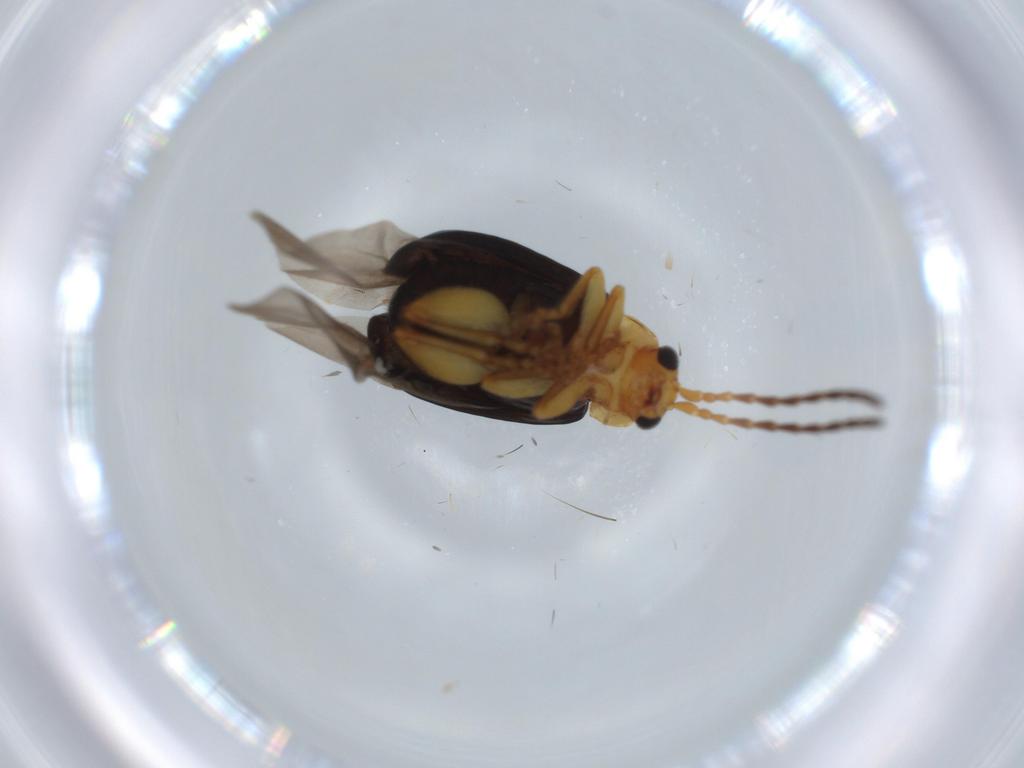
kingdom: Animalia
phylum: Arthropoda
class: Insecta
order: Coleoptera
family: Chrysomelidae
